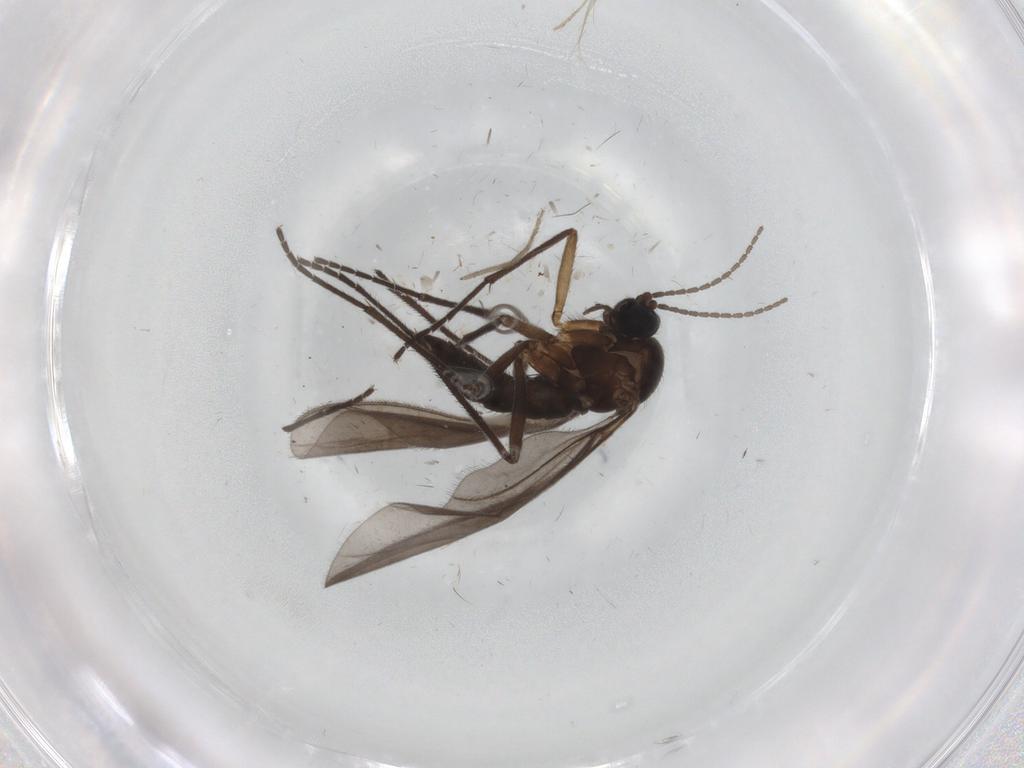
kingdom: Animalia
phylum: Arthropoda
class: Insecta
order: Diptera
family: Sciaridae
